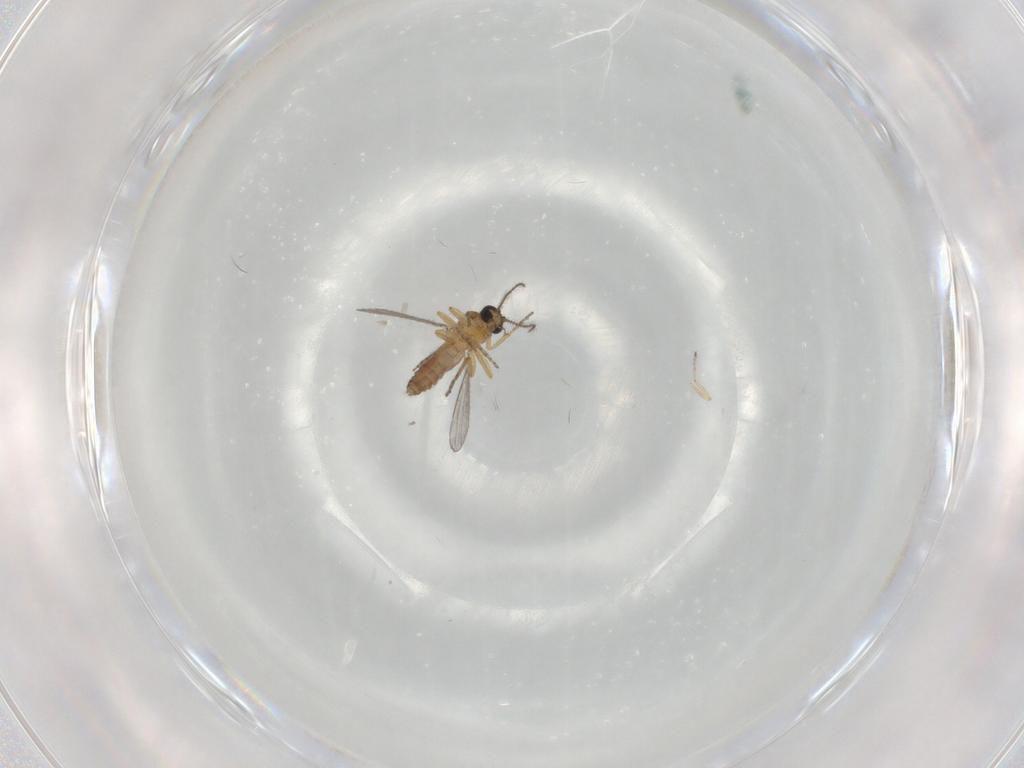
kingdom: Animalia
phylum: Arthropoda
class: Insecta
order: Diptera
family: Ceratopogonidae
